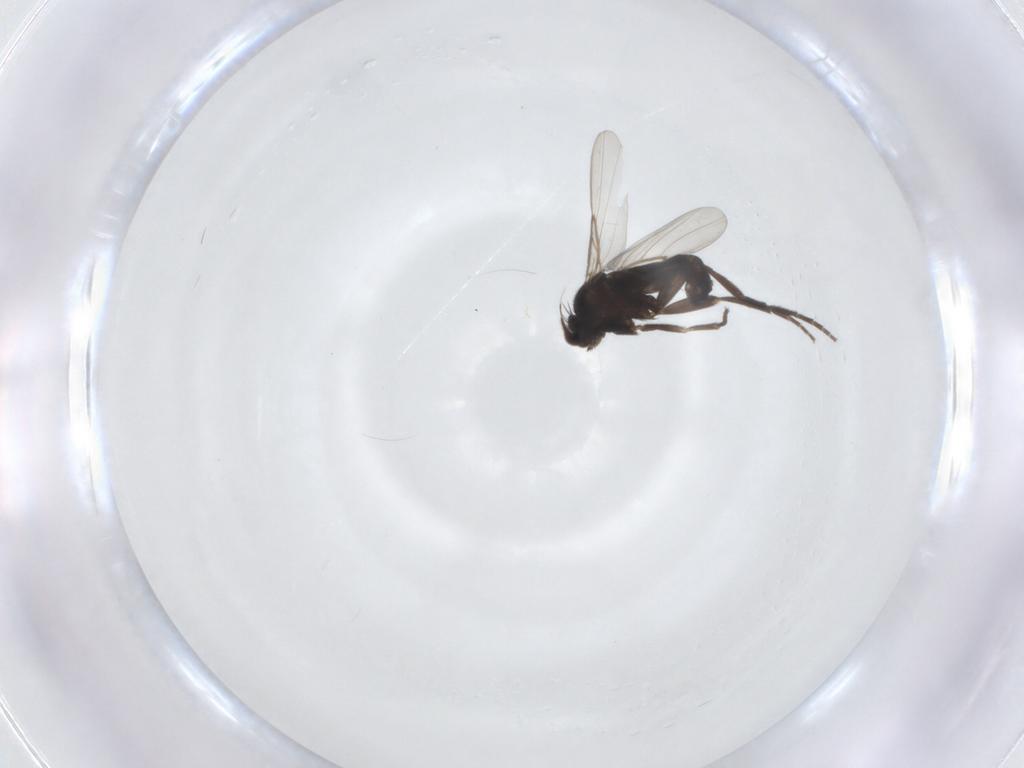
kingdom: Animalia
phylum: Arthropoda
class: Insecta
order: Diptera
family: Phoridae
